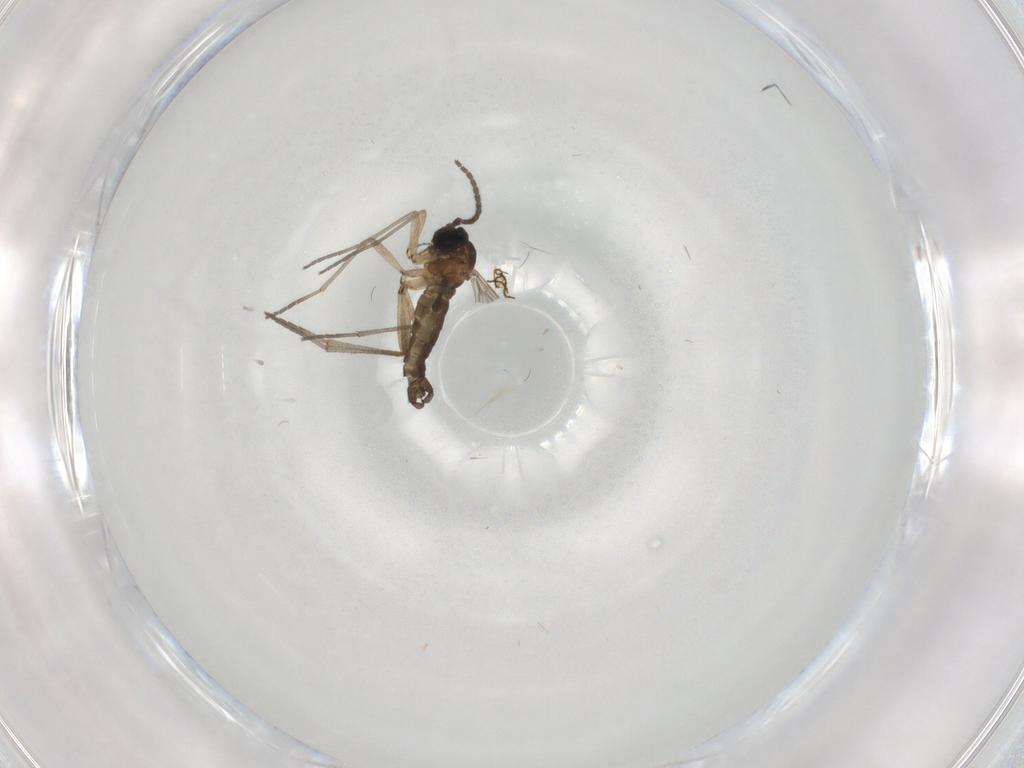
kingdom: Animalia
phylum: Arthropoda
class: Insecta
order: Diptera
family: Sciaridae
